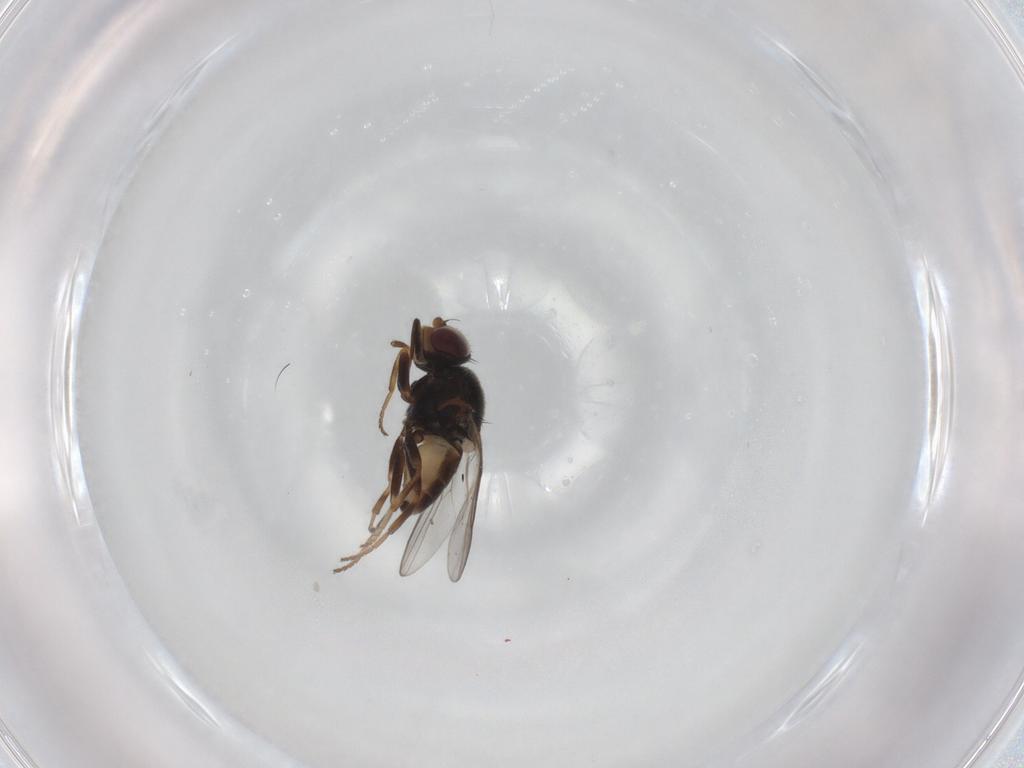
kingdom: Animalia
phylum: Arthropoda
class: Insecta
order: Diptera
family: Chloropidae
